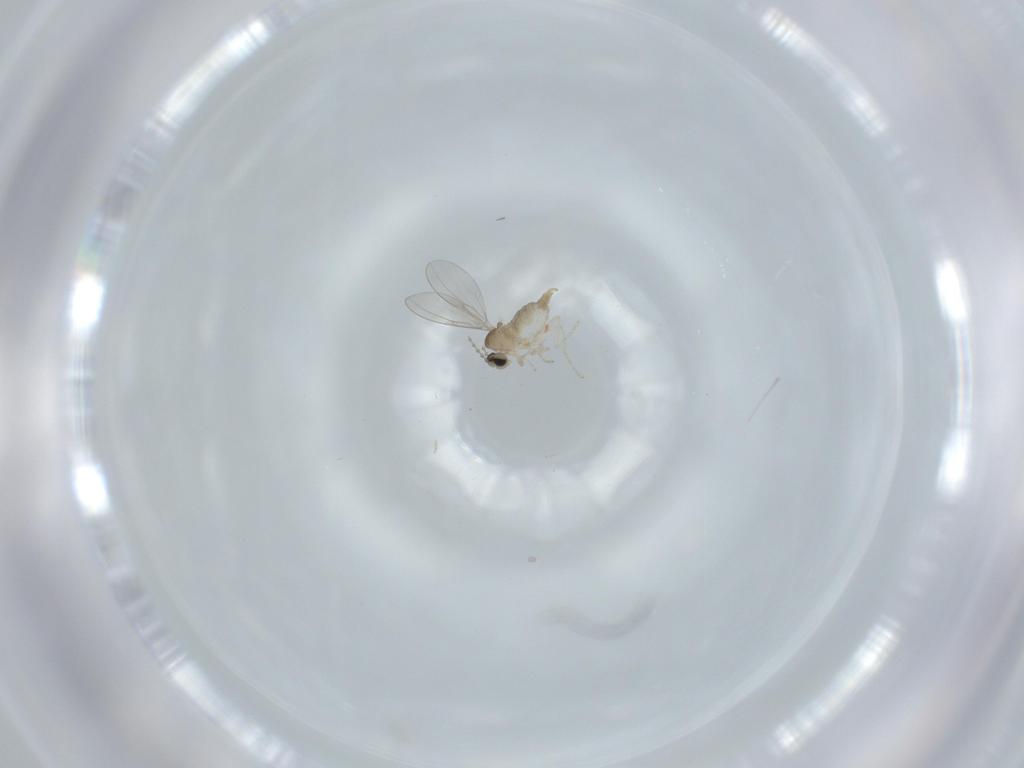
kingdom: Animalia
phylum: Arthropoda
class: Insecta
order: Diptera
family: Cecidomyiidae
